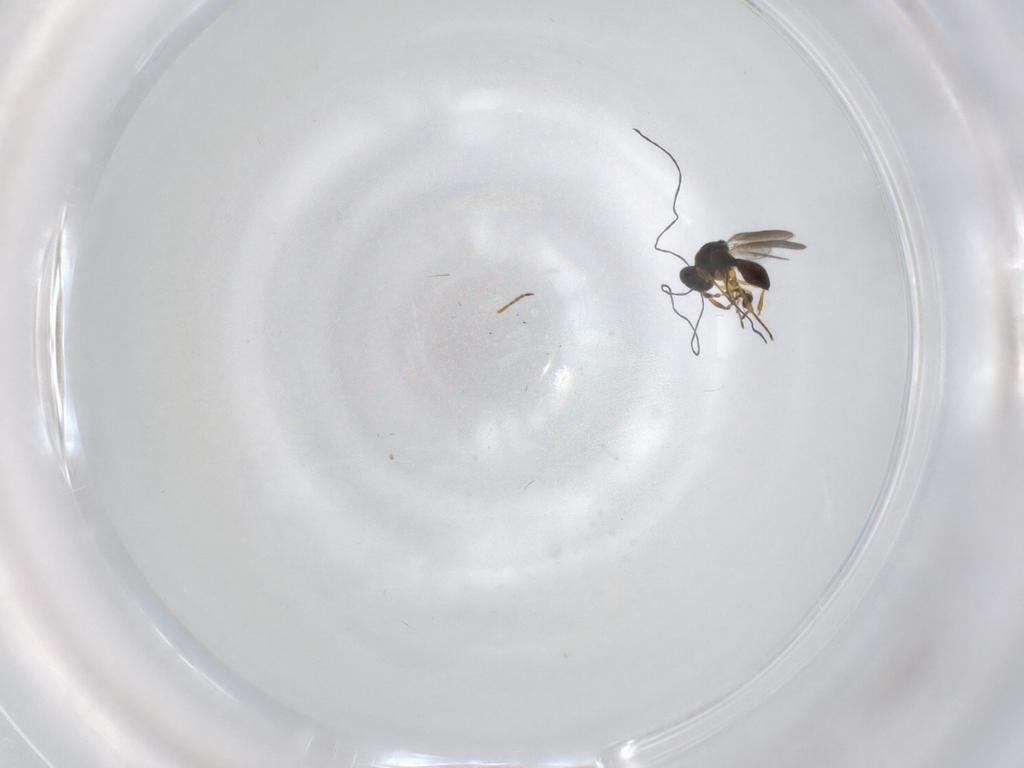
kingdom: Animalia
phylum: Arthropoda
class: Insecta
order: Hymenoptera
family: Platygastridae
